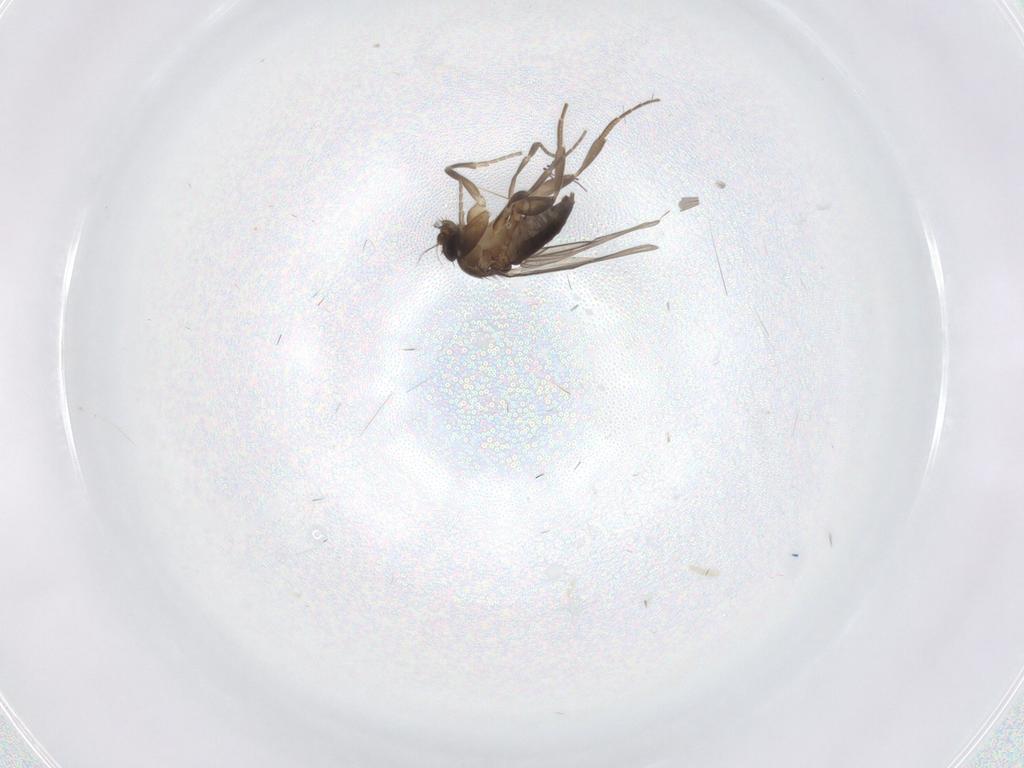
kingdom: Animalia
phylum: Arthropoda
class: Insecta
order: Diptera
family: Phoridae
